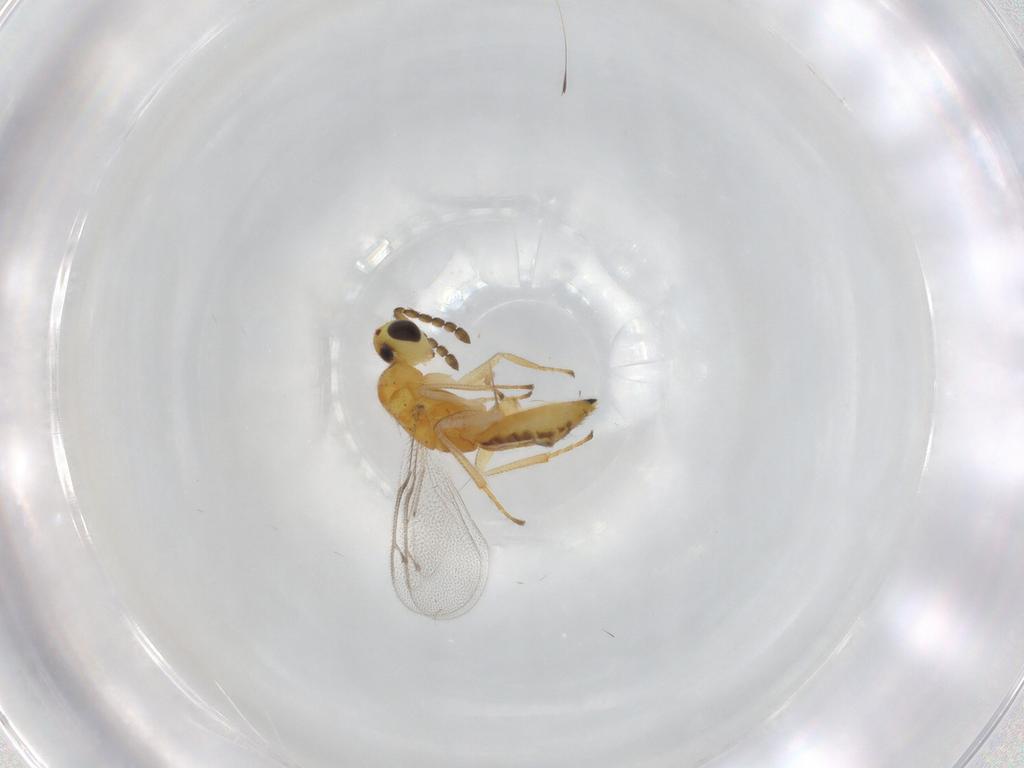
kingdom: Animalia
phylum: Arthropoda
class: Insecta
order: Hymenoptera
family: Eulophidae
